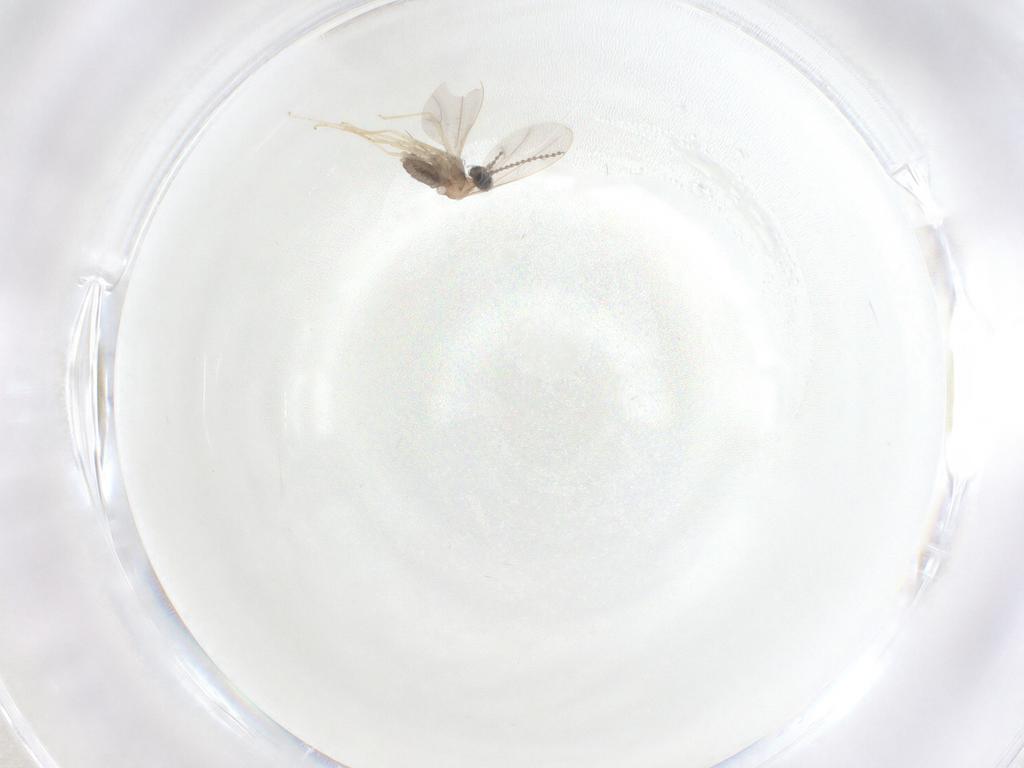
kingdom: Animalia
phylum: Arthropoda
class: Insecta
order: Diptera
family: Cecidomyiidae
